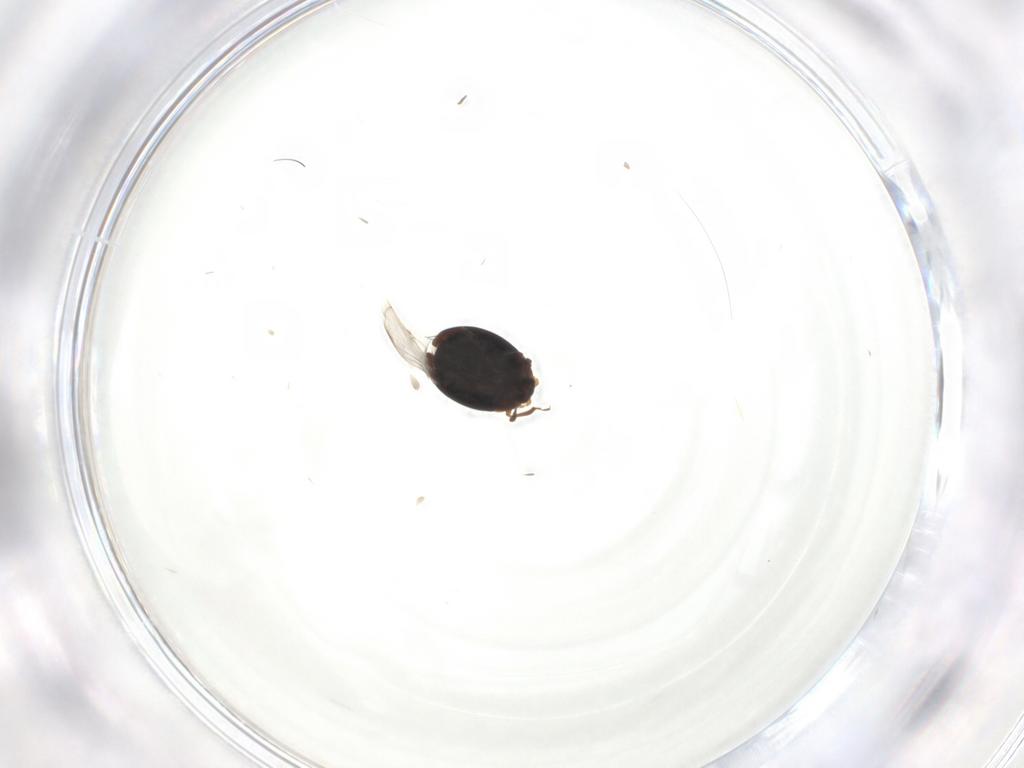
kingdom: Animalia
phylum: Arthropoda
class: Insecta
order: Coleoptera
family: Corylophidae
